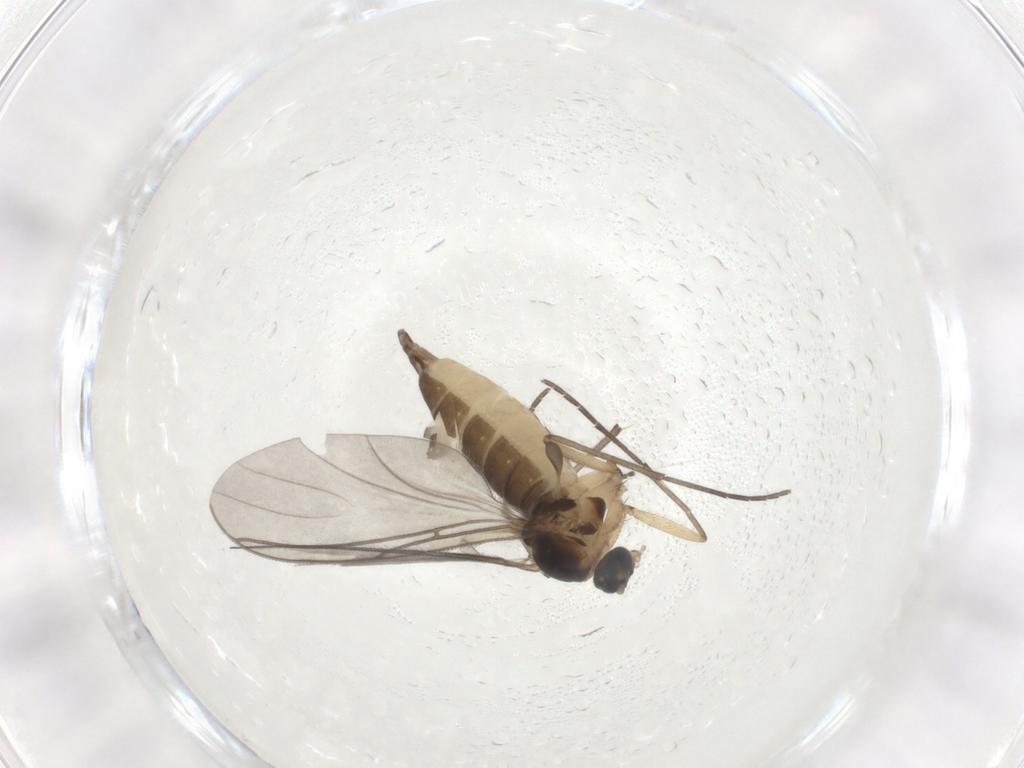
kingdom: Animalia
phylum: Arthropoda
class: Insecta
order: Diptera
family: Sciaridae
